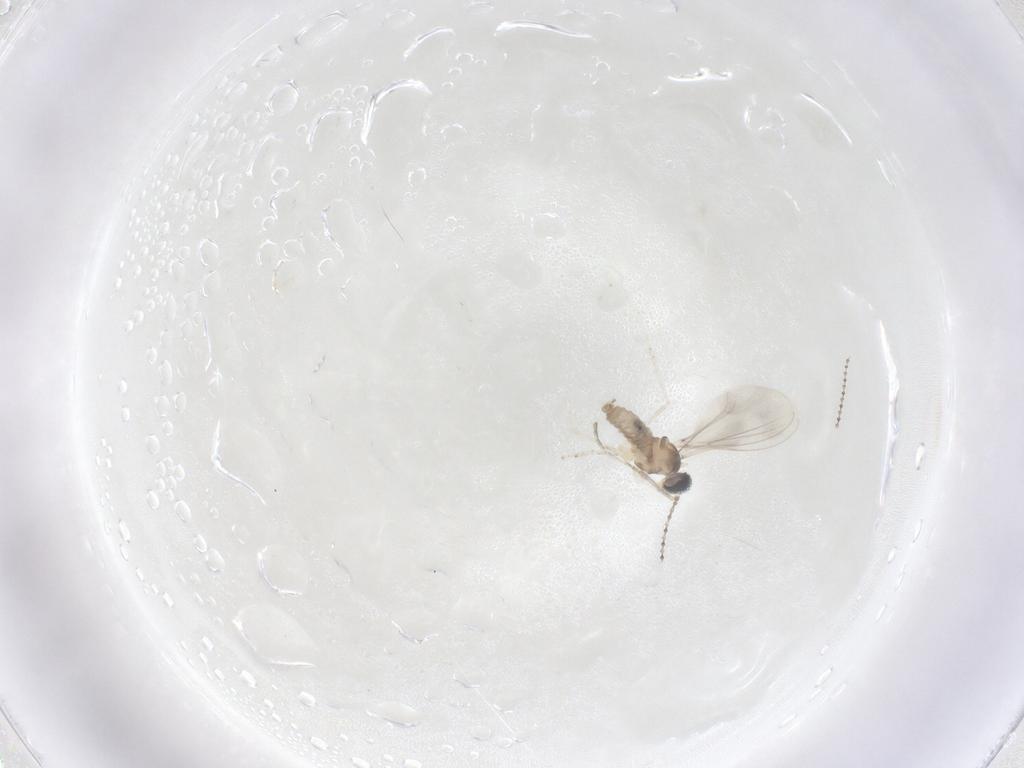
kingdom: Animalia
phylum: Arthropoda
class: Insecta
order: Diptera
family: Cecidomyiidae
